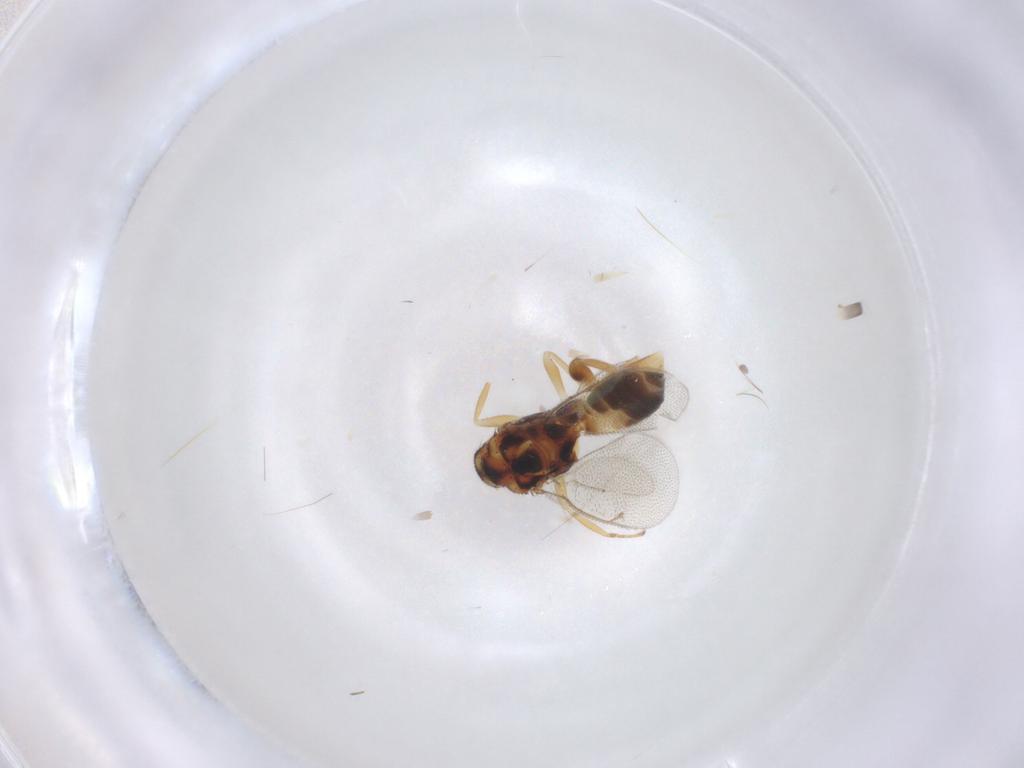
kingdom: Animalia
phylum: Arthropoda
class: Insecta
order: Hymenoptera
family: Eulophidae
